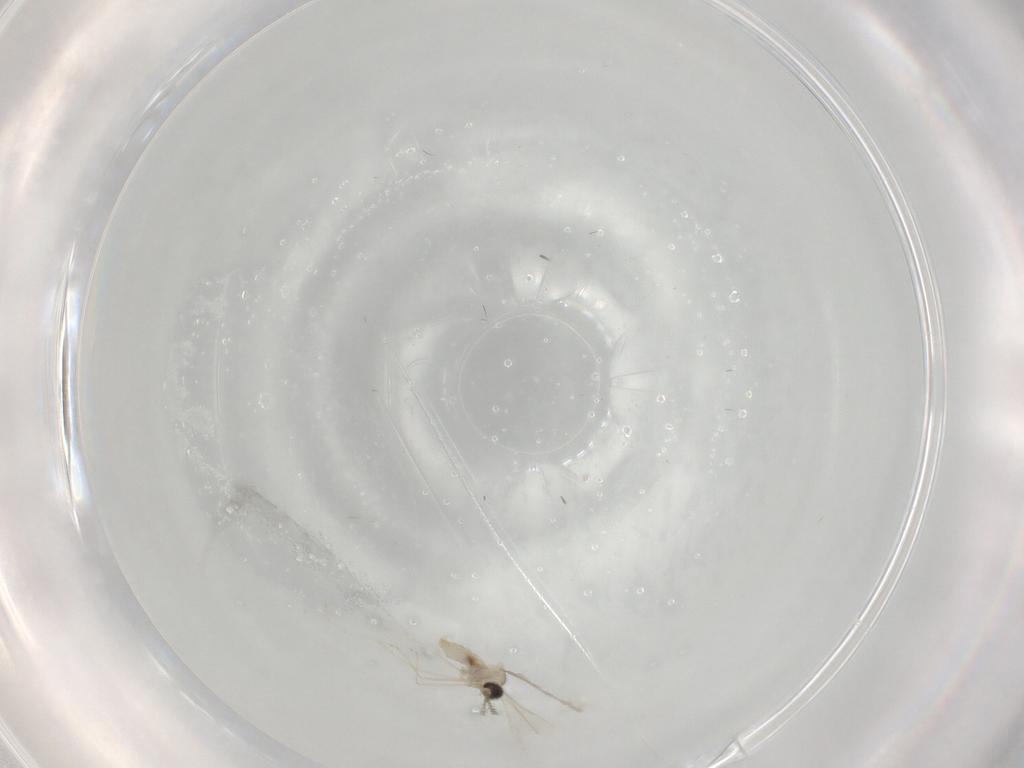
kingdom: Animalia
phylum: Arthropoda
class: Insecta
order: Diptera
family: Cecidomyiidae
